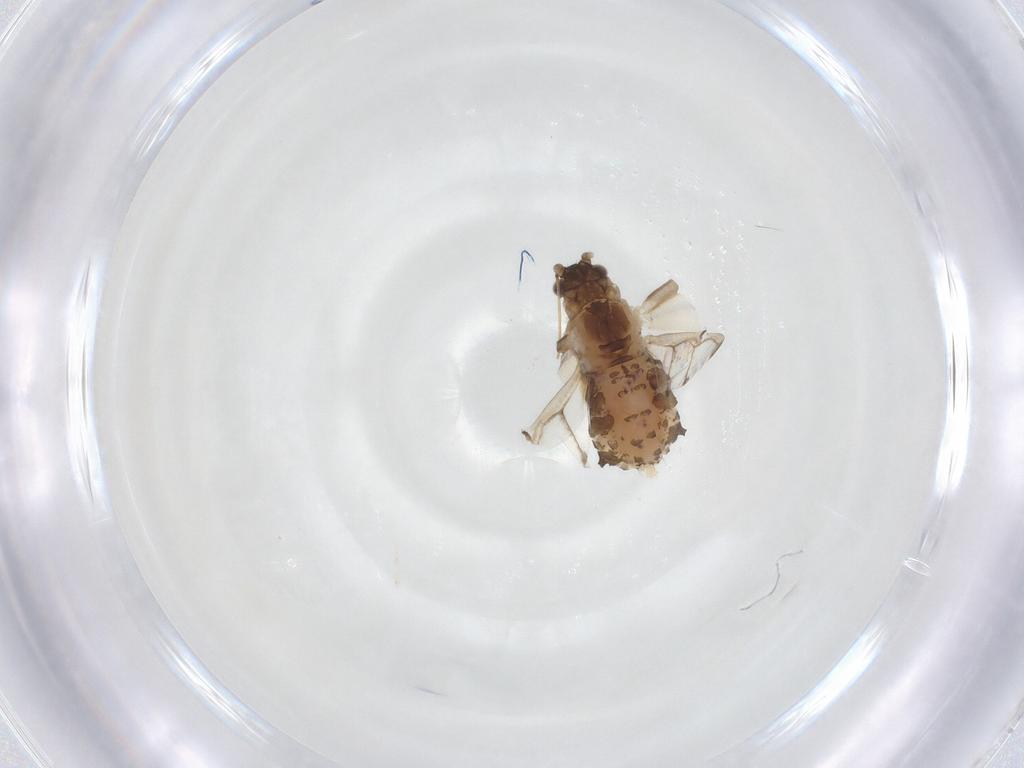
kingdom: Animalia
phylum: Arthropoda
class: Insecta
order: Hemiptera
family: Aphididae
